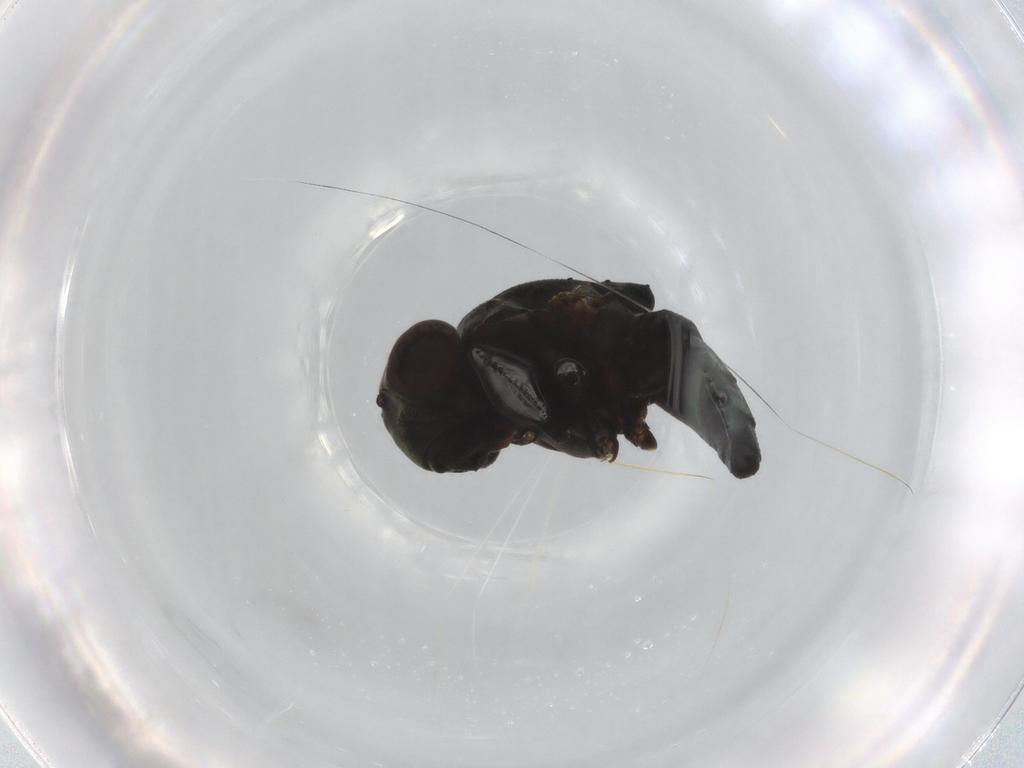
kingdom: Animalia
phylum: Arthropoda
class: Insecta
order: Diptera
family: Dolichopodidae
